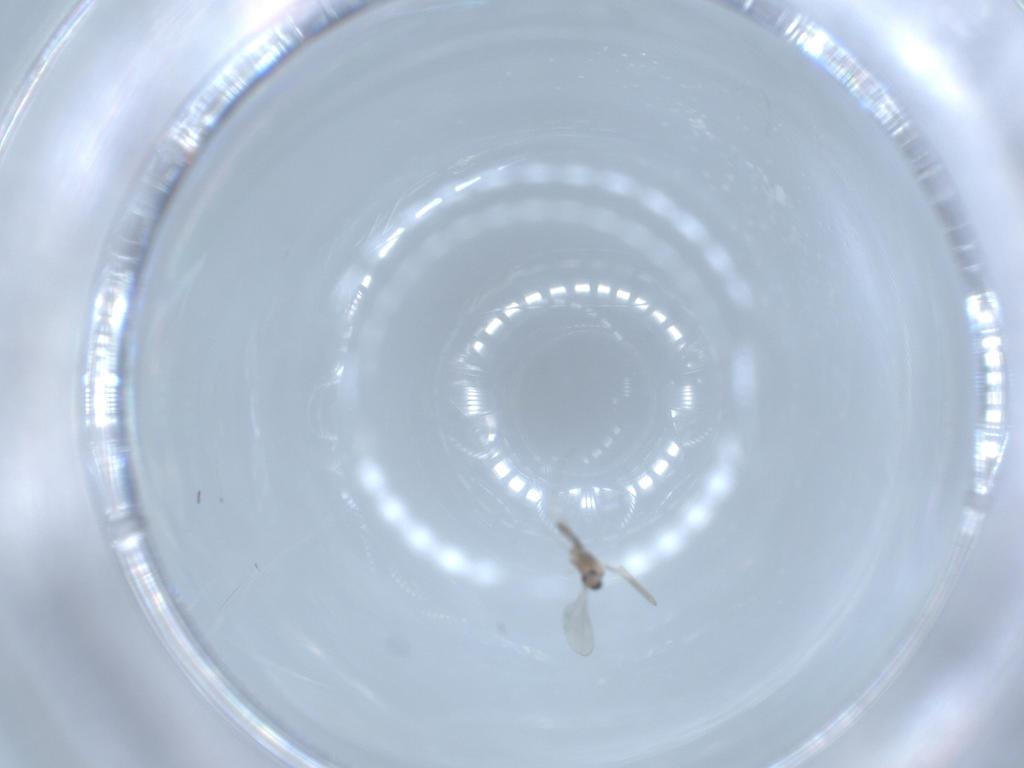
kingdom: Animalia
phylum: Arthropoda
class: Insecta
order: Diptera
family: Cecidomyiidae
